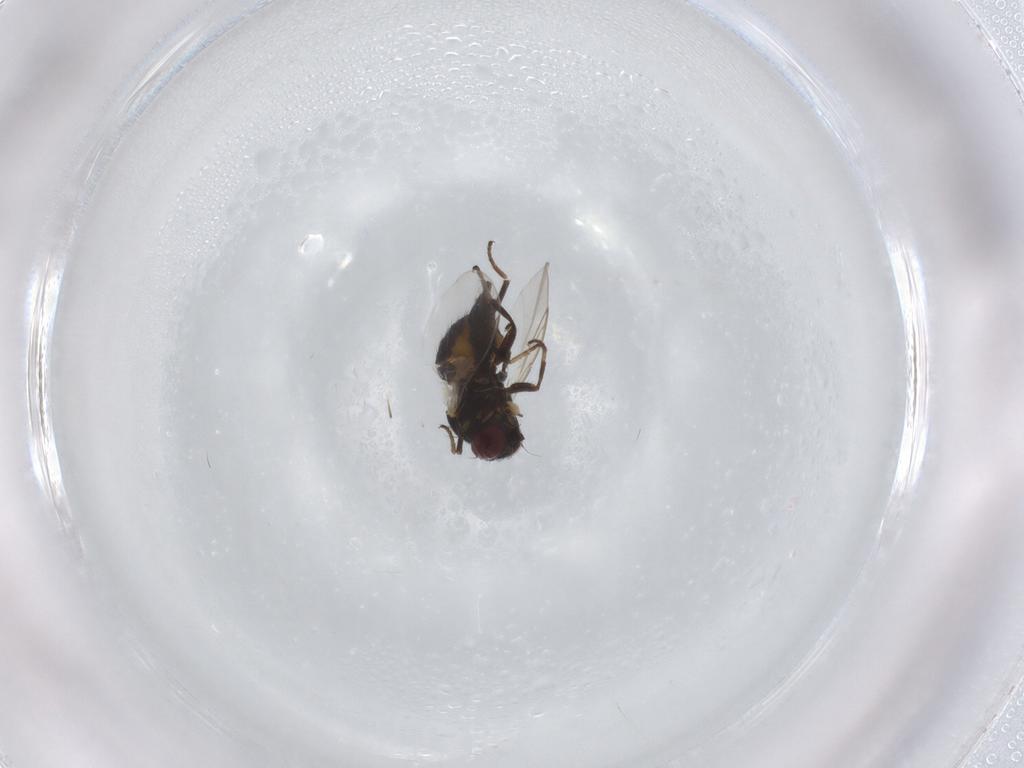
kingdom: Animalia
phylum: Arthropoda
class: Insecta
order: Diptera
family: Agromyzidae
